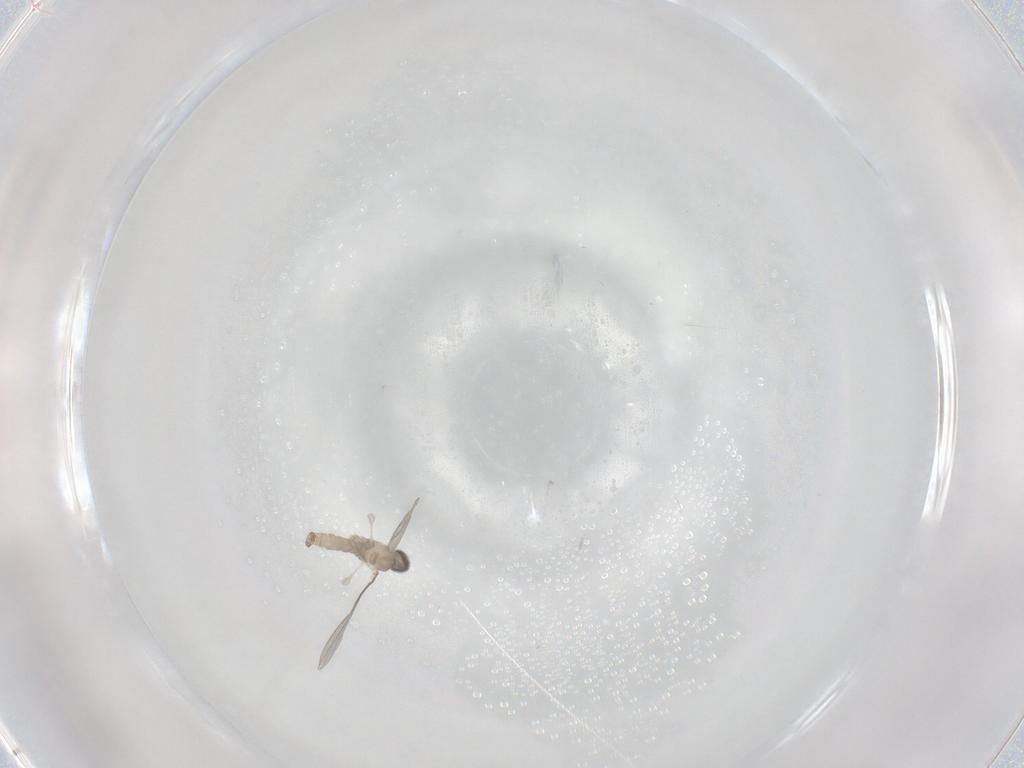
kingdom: Animalia
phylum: Arthropoda
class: Insecta
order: Diptera
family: Cecidomyiidae
